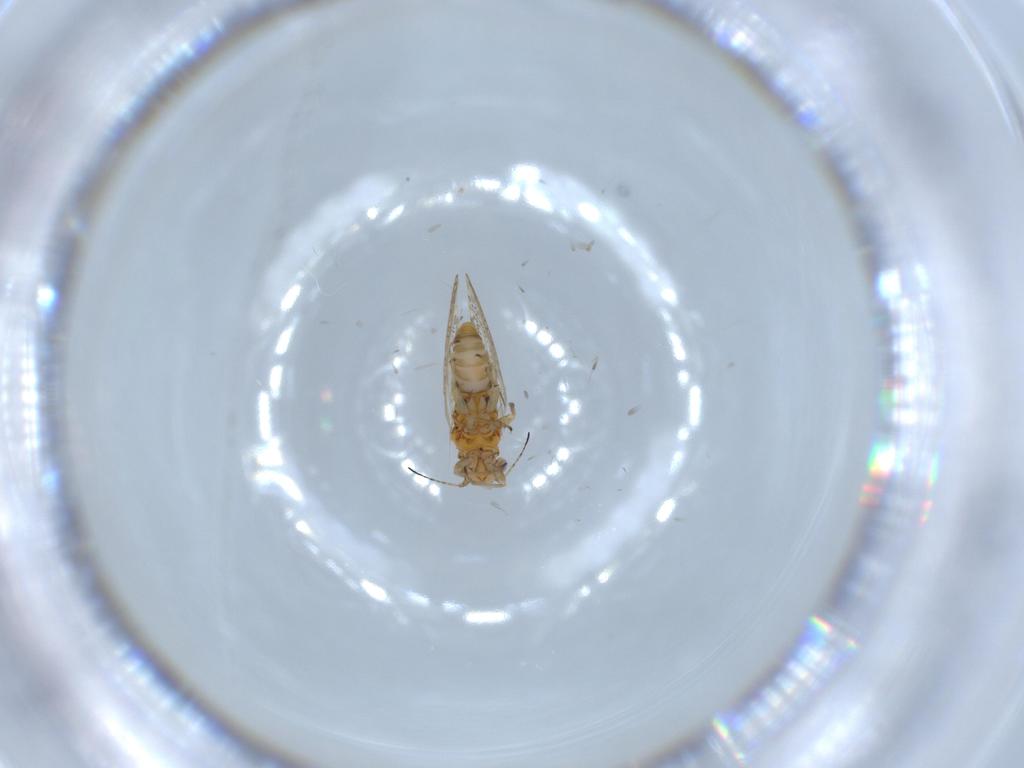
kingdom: Animalia
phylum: Arthropoda
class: Insecta
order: Hemiptera
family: Psyllidae
